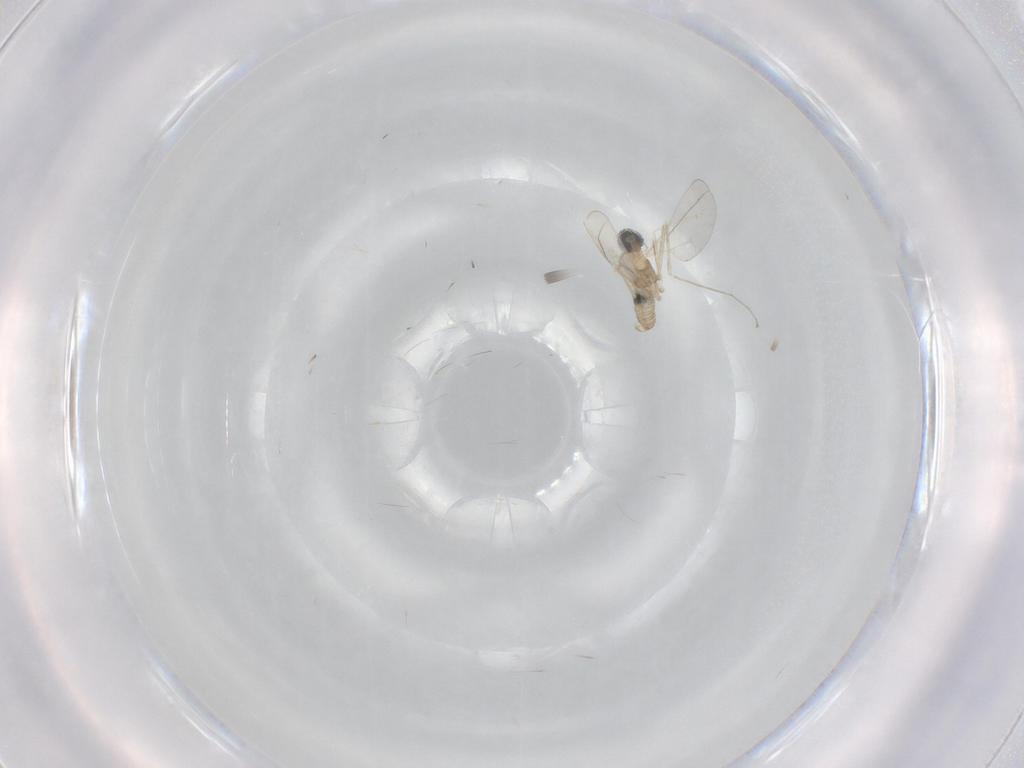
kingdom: Animalia
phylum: Arthropoda
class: Insecta
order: Diptera
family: Cecidomyiidae
